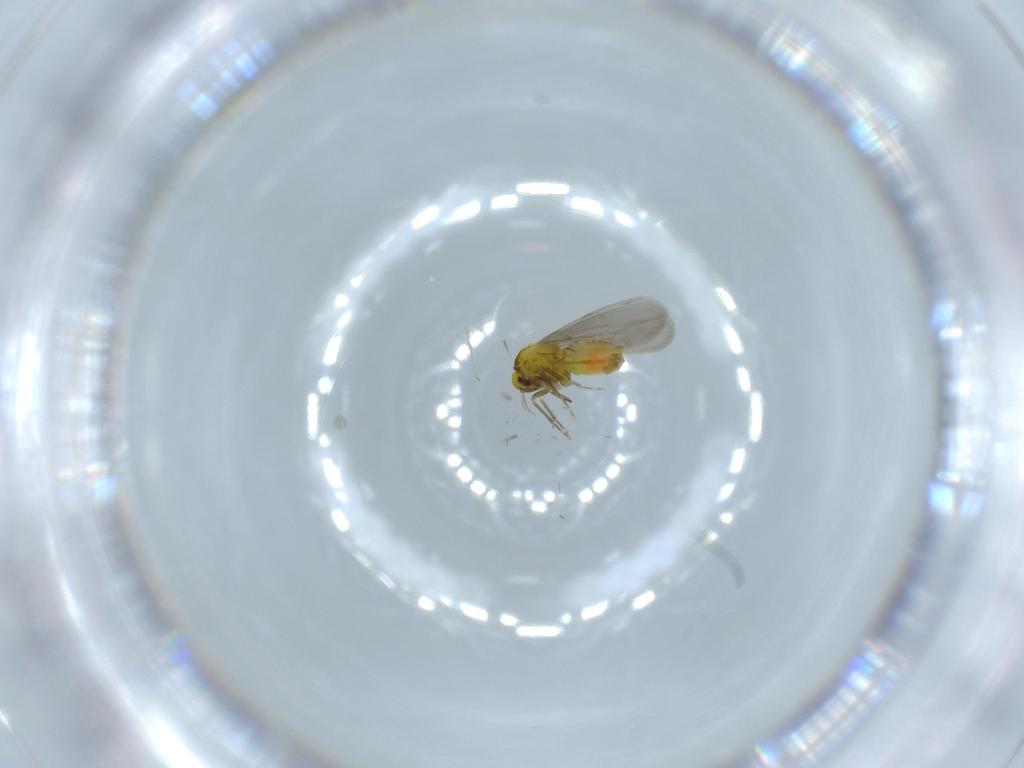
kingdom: Animalia
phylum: Arthropoda
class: Insecta
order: Hemiptera
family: Aleyrodidae
